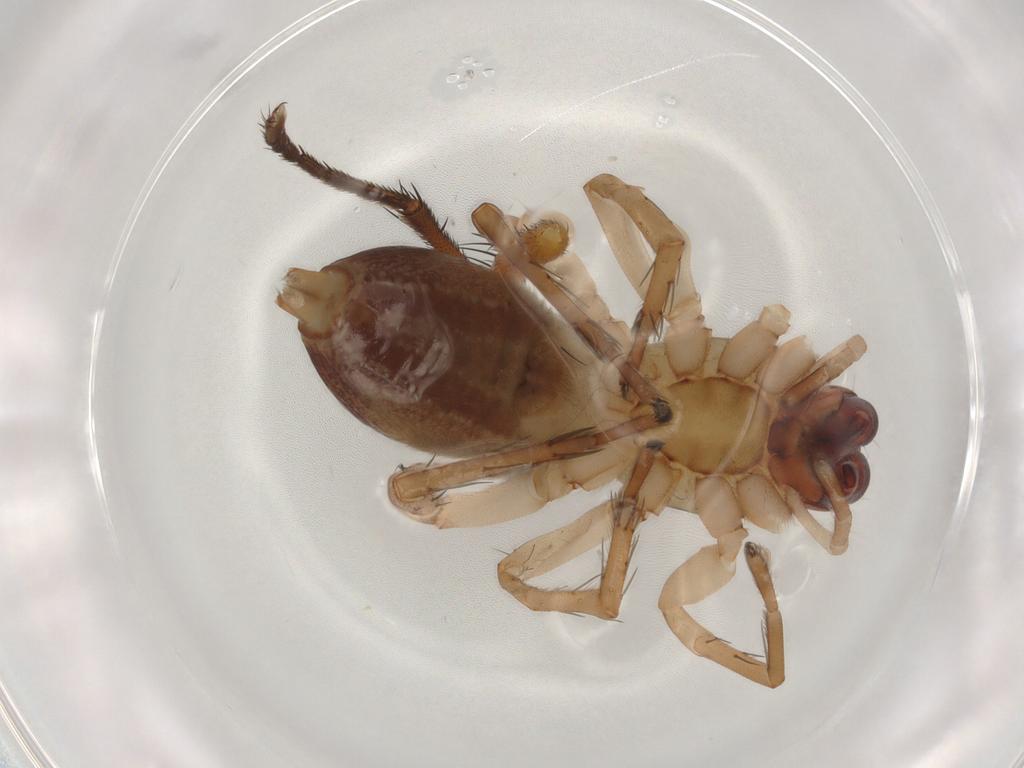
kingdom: Animalia
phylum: Arthropoda
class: Arachnida
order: Araneae
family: Clubionidae
